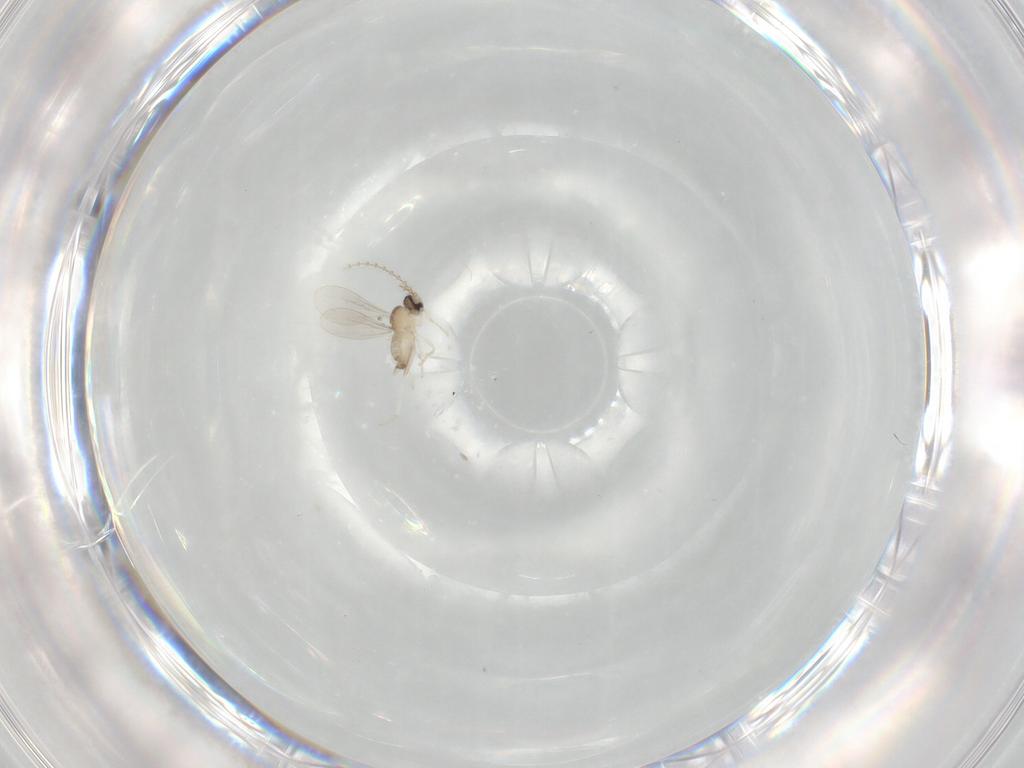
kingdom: Animalia
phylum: Arthropoda
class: Insecta
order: Diptera
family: Cecidomyiidae
